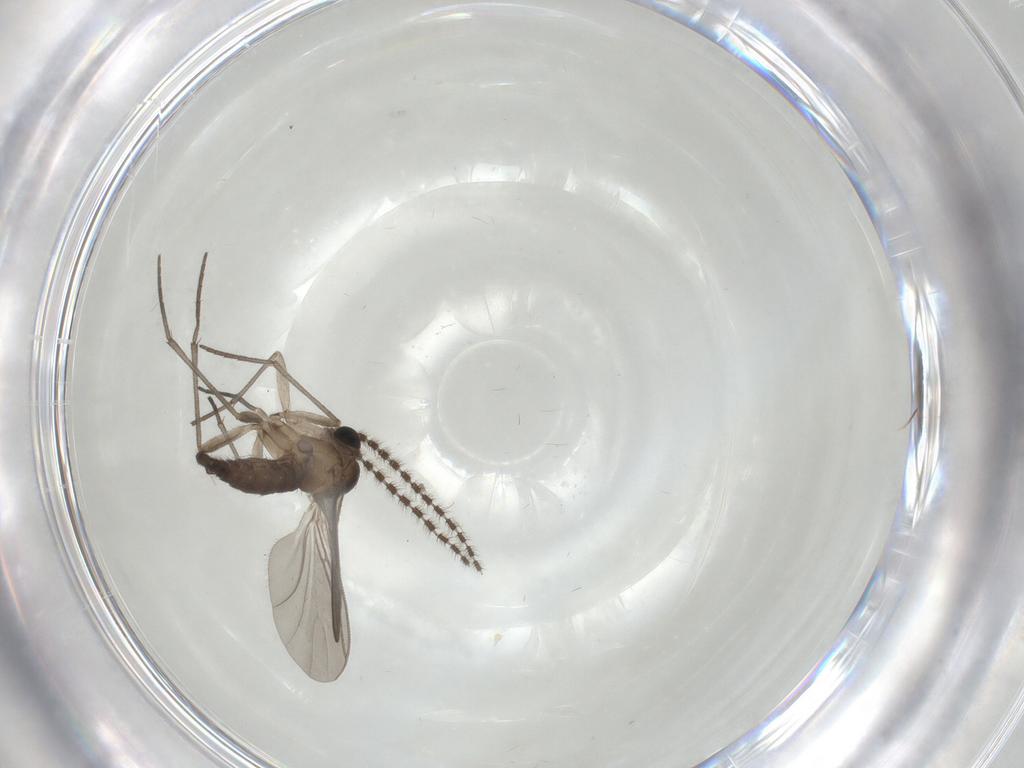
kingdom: Animalia
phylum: Arthropoda
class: Insecta
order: Diptera
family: Sciaridae
